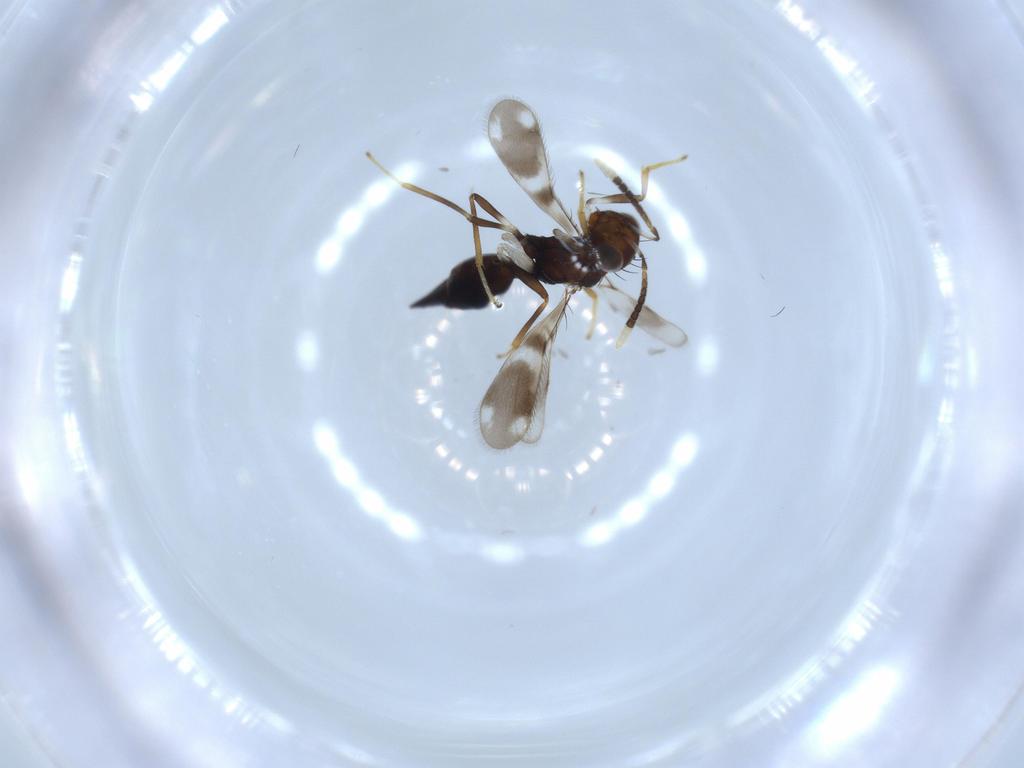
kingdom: Animalia
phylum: Arthropoda
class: Insecta
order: Hymenoptera
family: Diparidae
